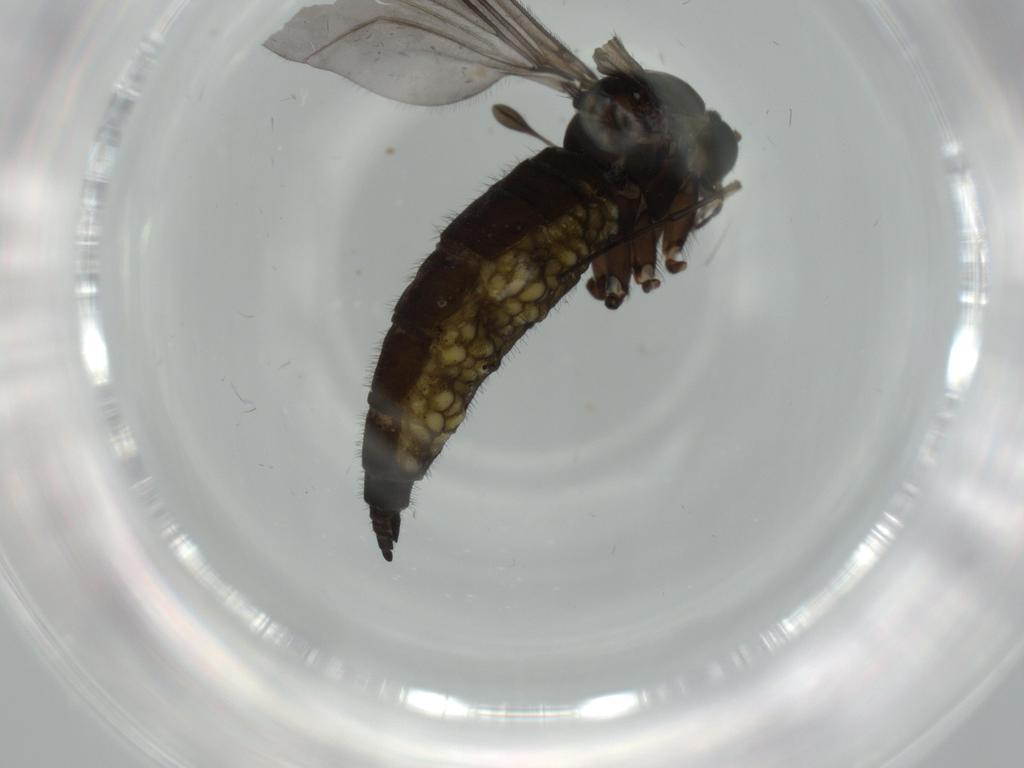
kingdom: Animalia
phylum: Arthropoda
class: Insecta
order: Diptera
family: Sciaridae
